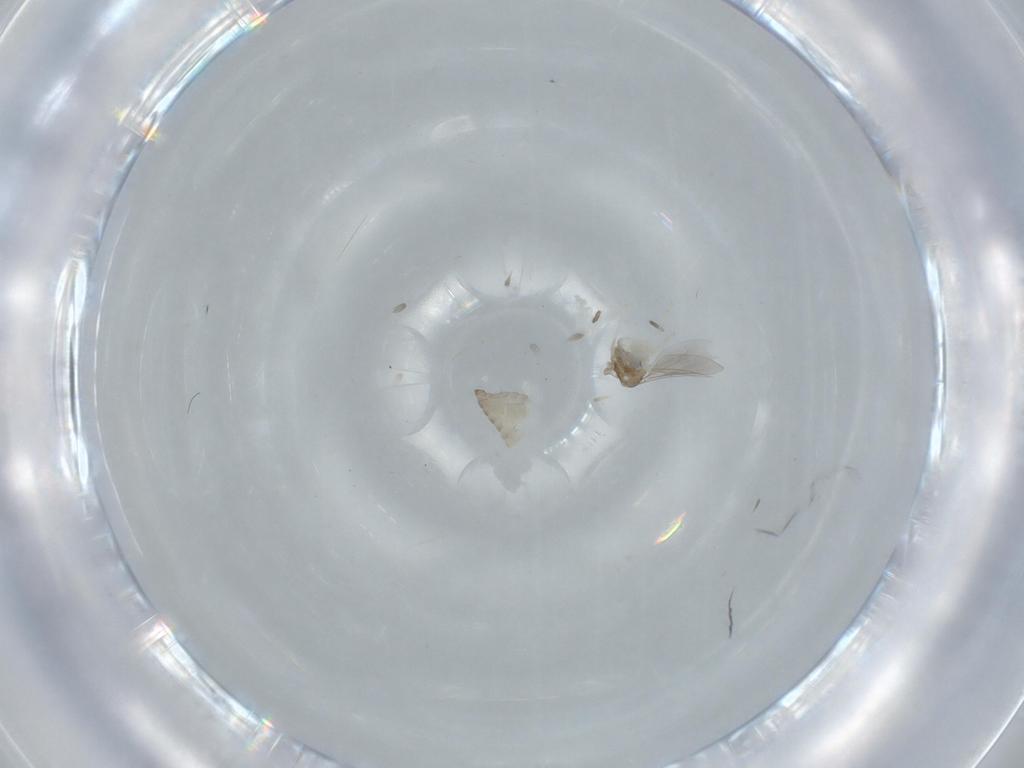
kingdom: Animalia
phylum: Arthropoda
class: Insecta
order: Diptera
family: Cecidomyiidae
